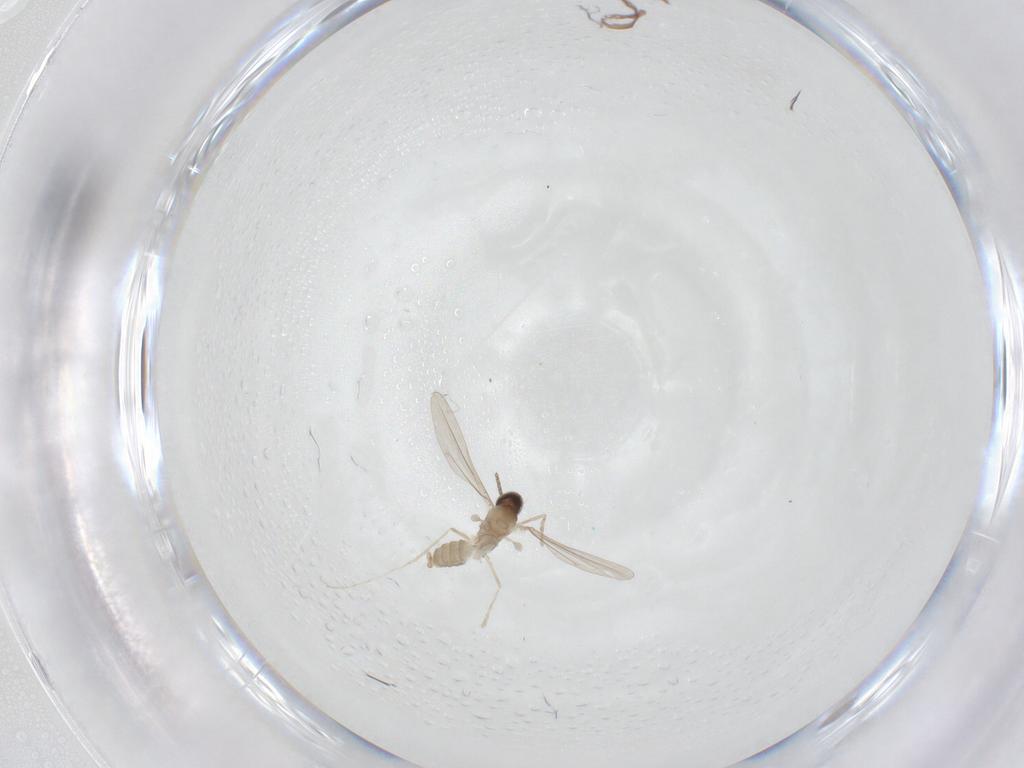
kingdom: Animalia
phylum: Arthropoda
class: Insecta
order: Diptera
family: Cecidomyiidae
